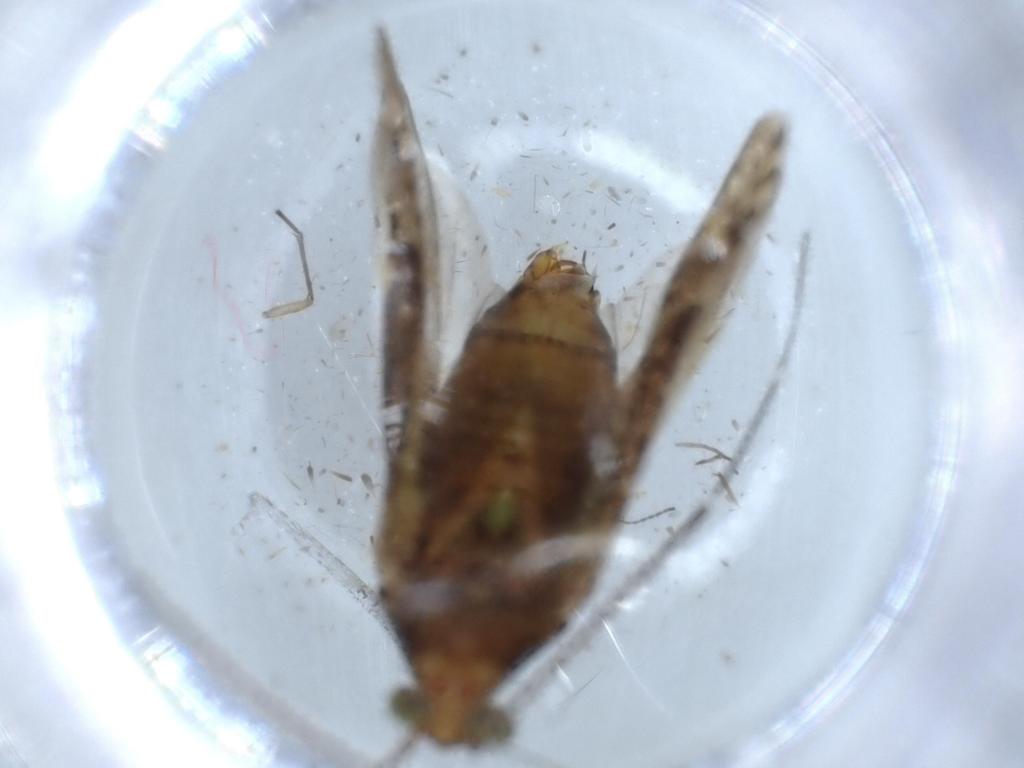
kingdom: Animalia
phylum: Arthropoda
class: Insecta
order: Hemiptera
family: Miridae
